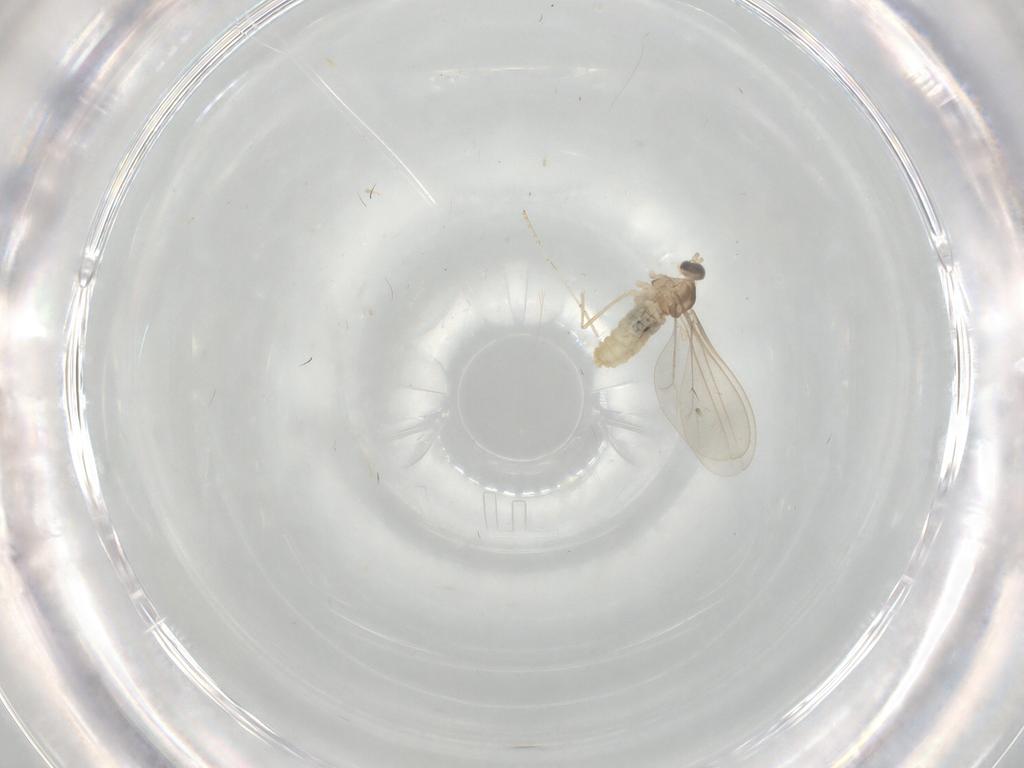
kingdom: Animalia
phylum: Arthropoda
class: Insecta
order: Diptera
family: Cecidomyiidae
